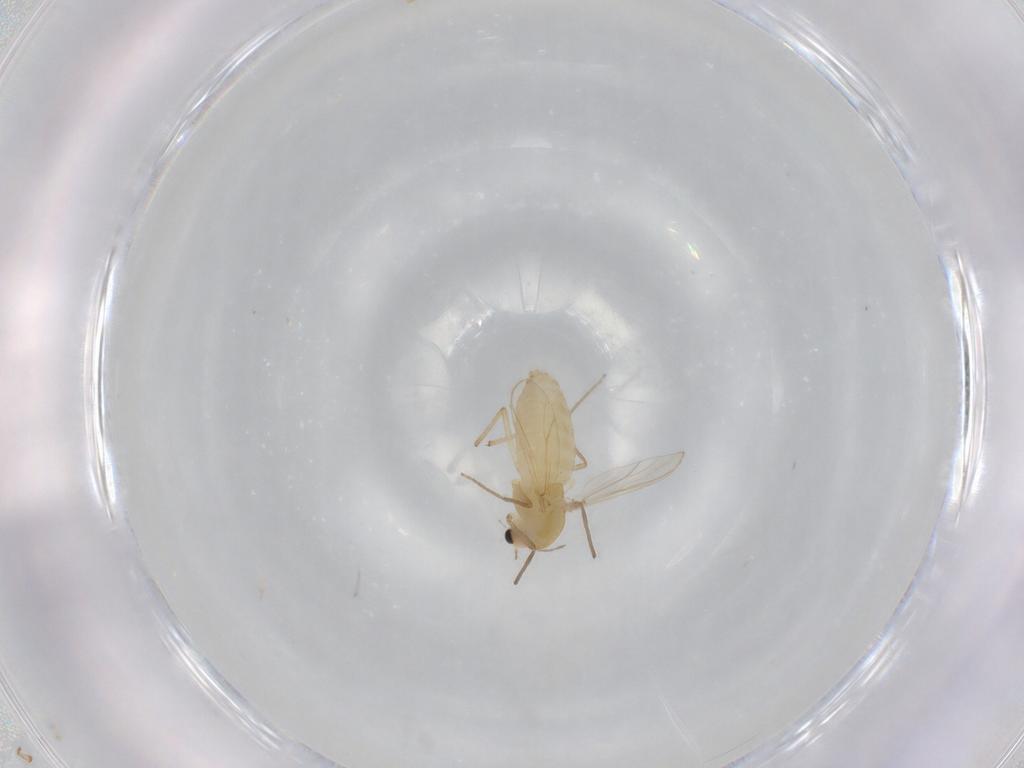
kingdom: Animalia
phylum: Arthropoda
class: Insecta
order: Diptera
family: Chironomidae
